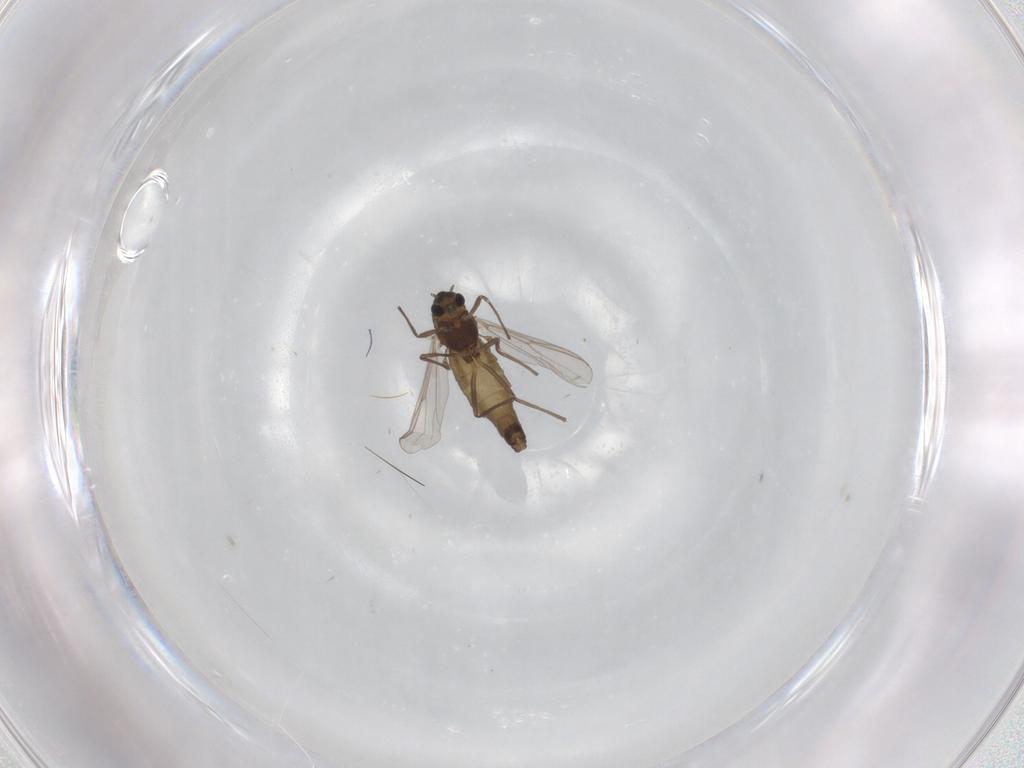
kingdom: Animalia
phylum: Arthropoda
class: Insecta
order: Diptera
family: Chironomidae
